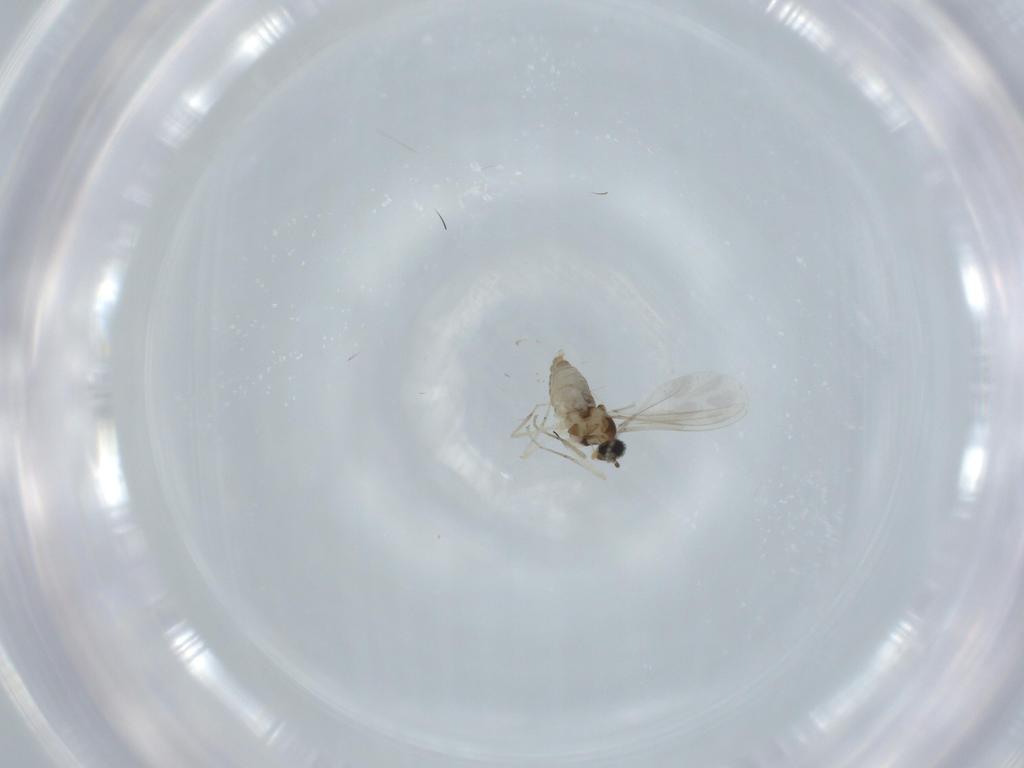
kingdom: Animalia
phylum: Arthropoda
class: Insecta
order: Diptera
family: Cecidomyiidae
